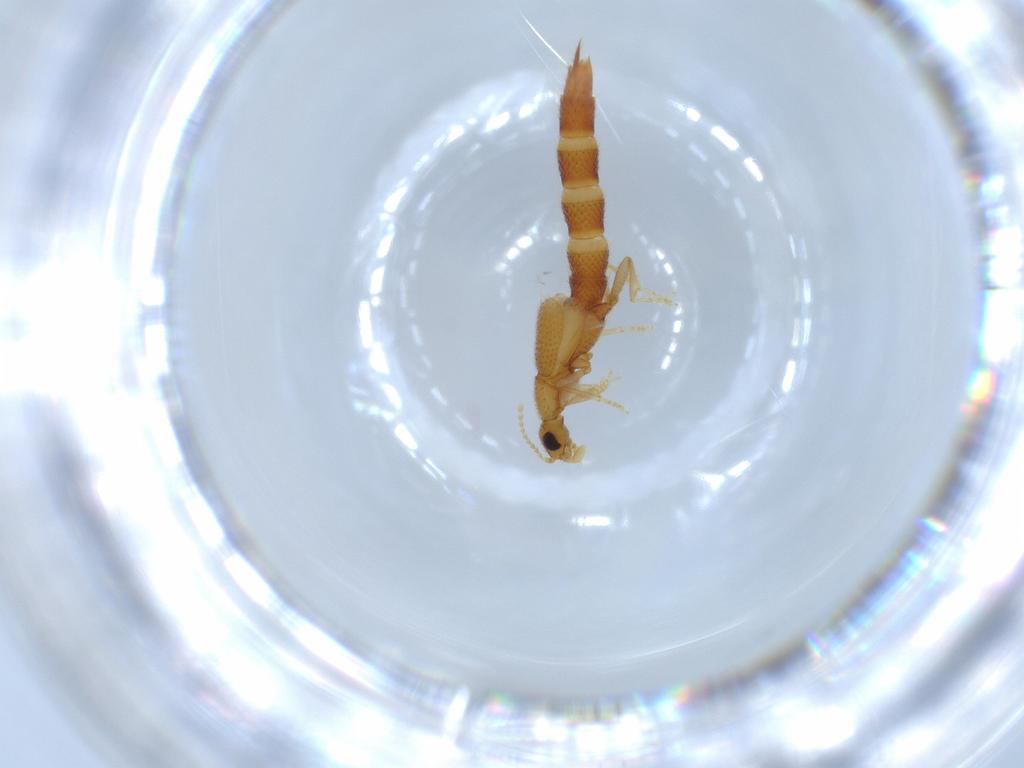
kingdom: Animalia
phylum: Arthropoda
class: Insecta
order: Coleoptera
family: Staphylinidae
